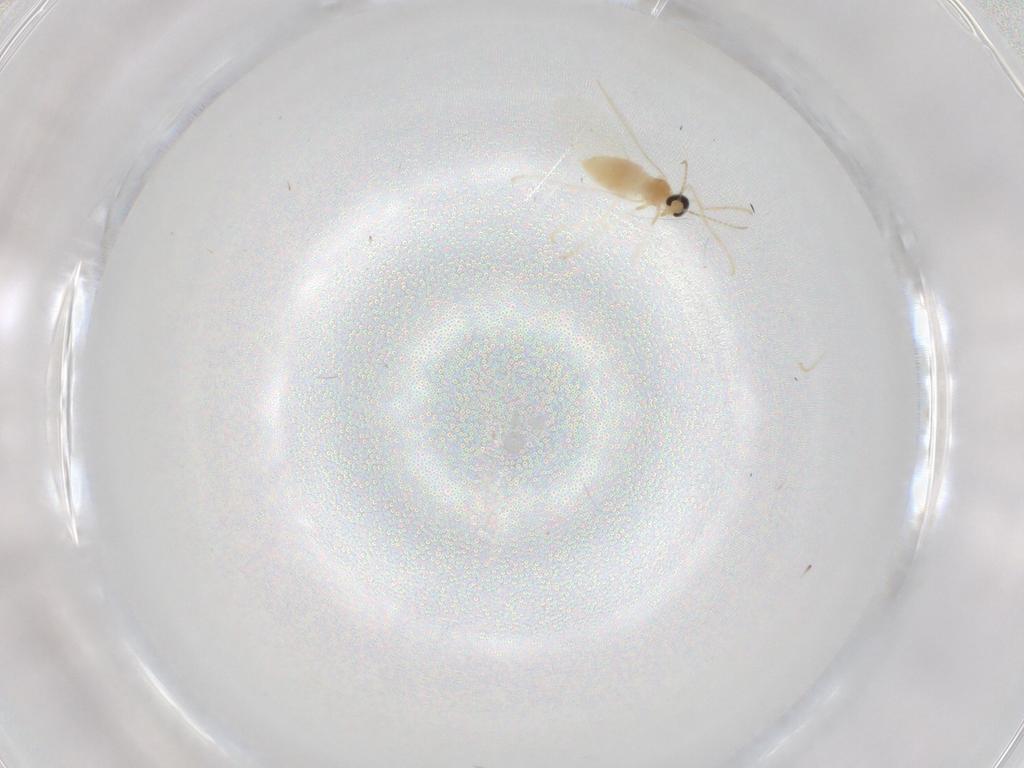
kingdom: Animalia
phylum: Arthropoda
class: Insecta
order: Diptera
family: Cecidomyiidae
